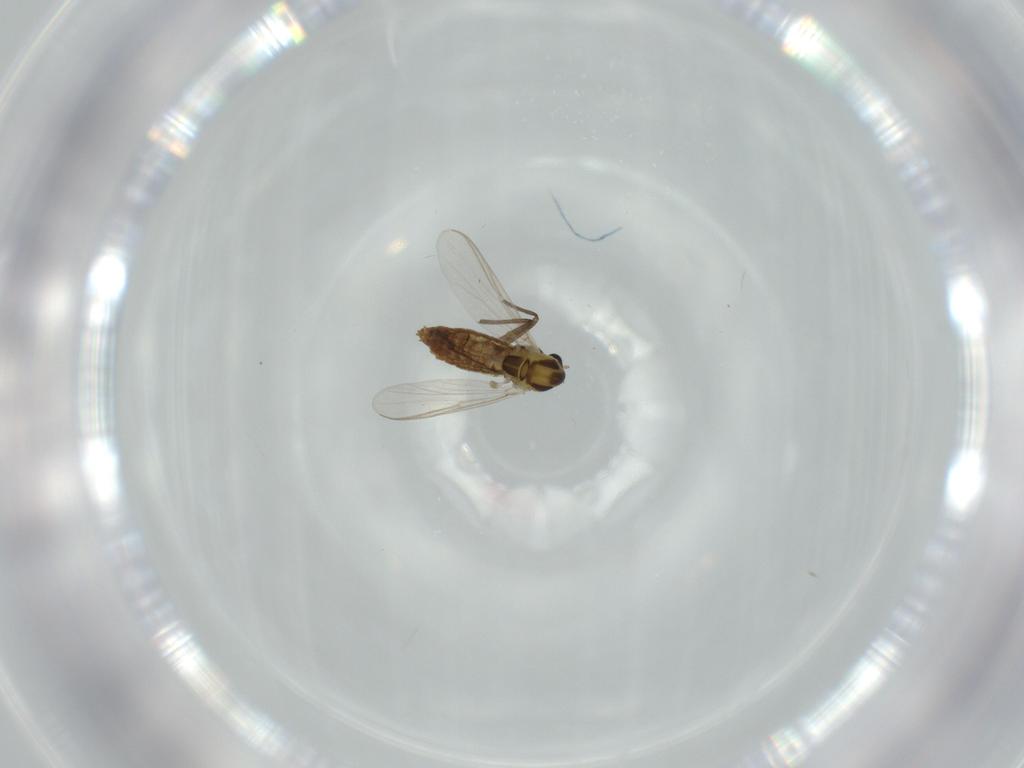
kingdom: Animalia
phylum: Arthropoda
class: Insecta
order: Diptera
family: Chironomidae
